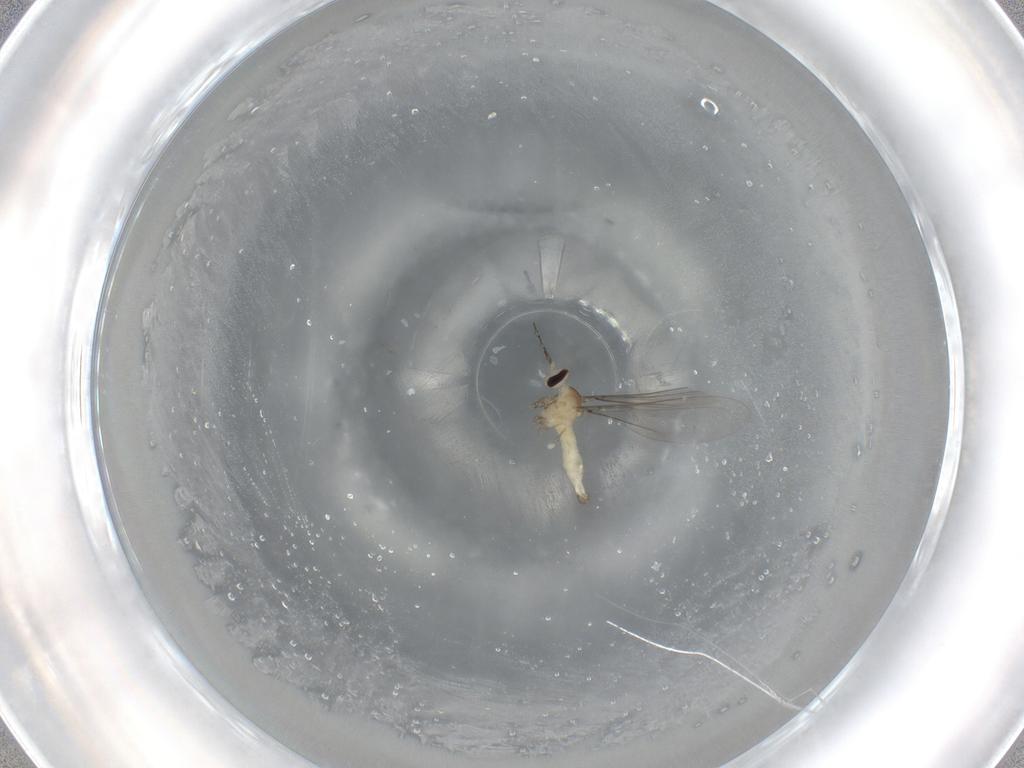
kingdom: Animalia
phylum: Arthropoda
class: Insecta
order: Diptera
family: Cecidomyiidae
